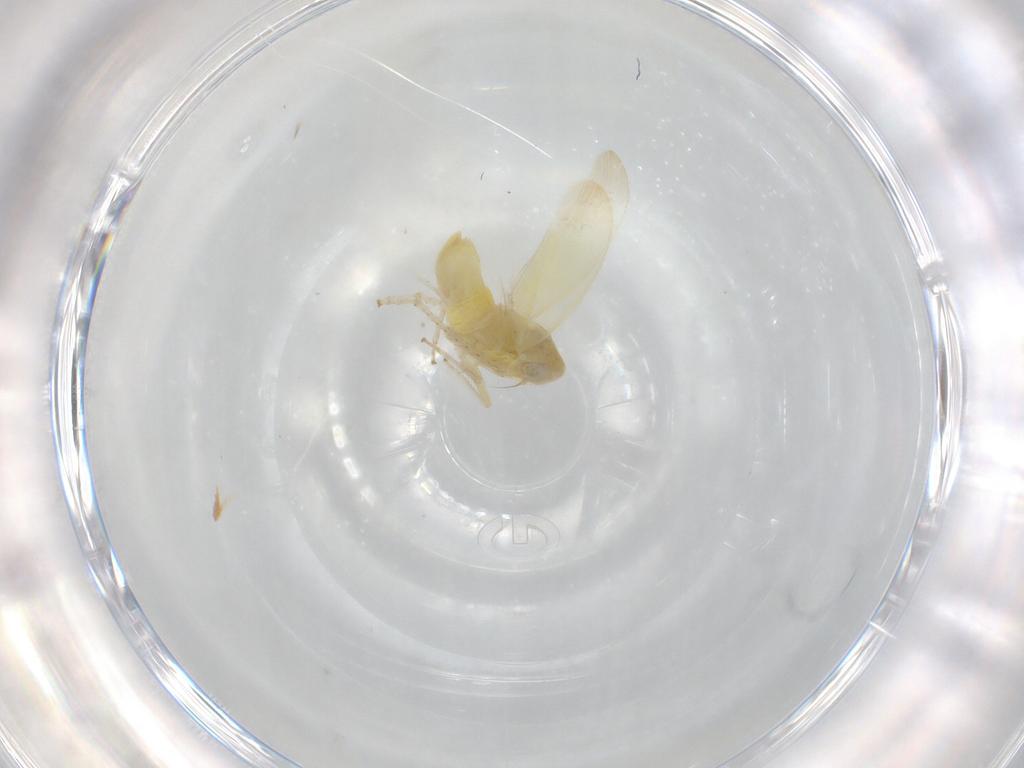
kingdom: Animalia
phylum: Arthropoda
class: Insecta
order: Hemiptera
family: Cicadellidae
